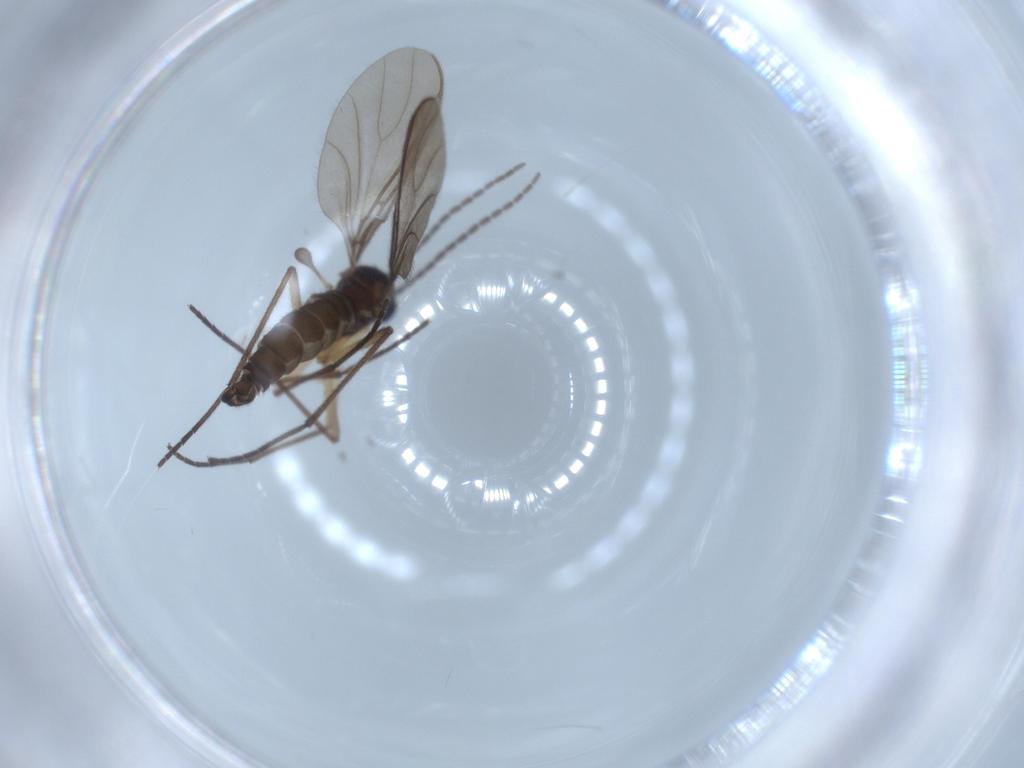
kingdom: Animalia
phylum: Arthropoda
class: Insecta
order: Diptera
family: Sciaridae
